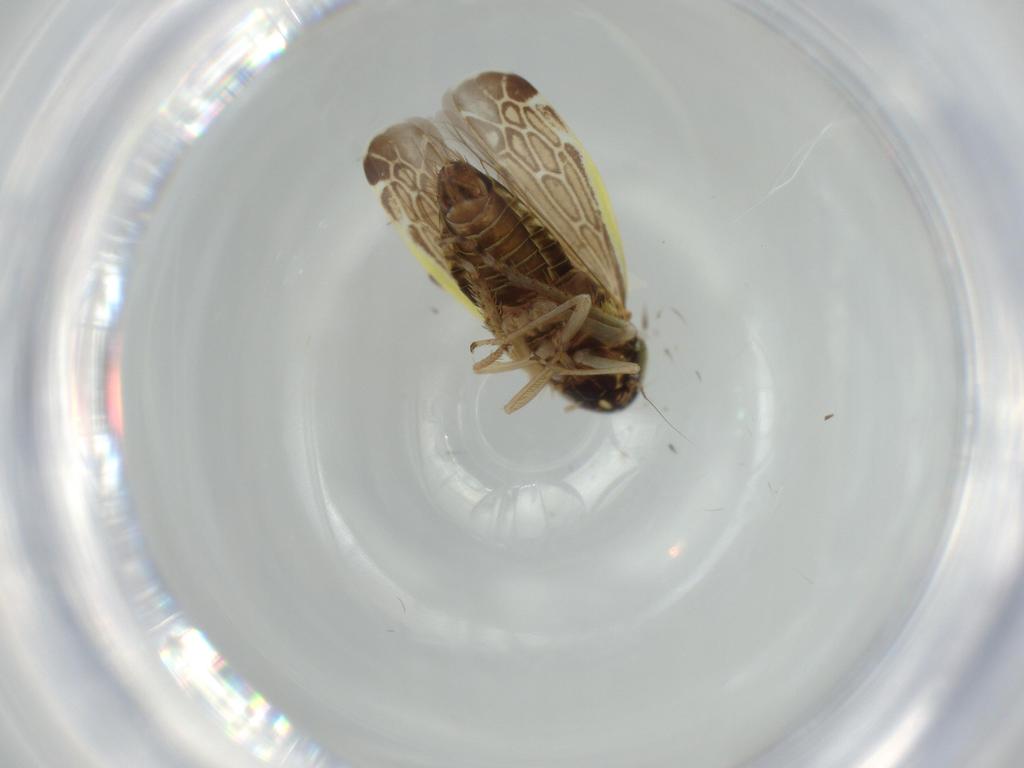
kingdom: Animalia
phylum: Arthropoda
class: Insecta
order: Hemiptera
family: Cicadellidae
